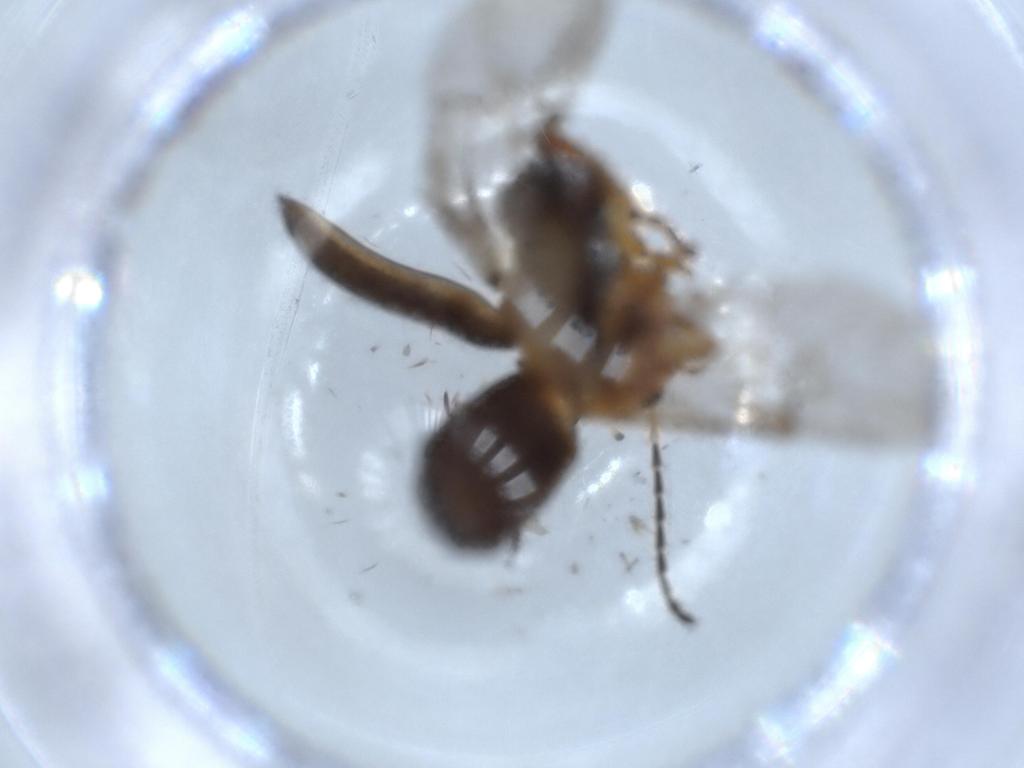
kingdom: Animalia
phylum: Arthropoda
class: Insecta
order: Coleoptera
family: Chrysomelidae
